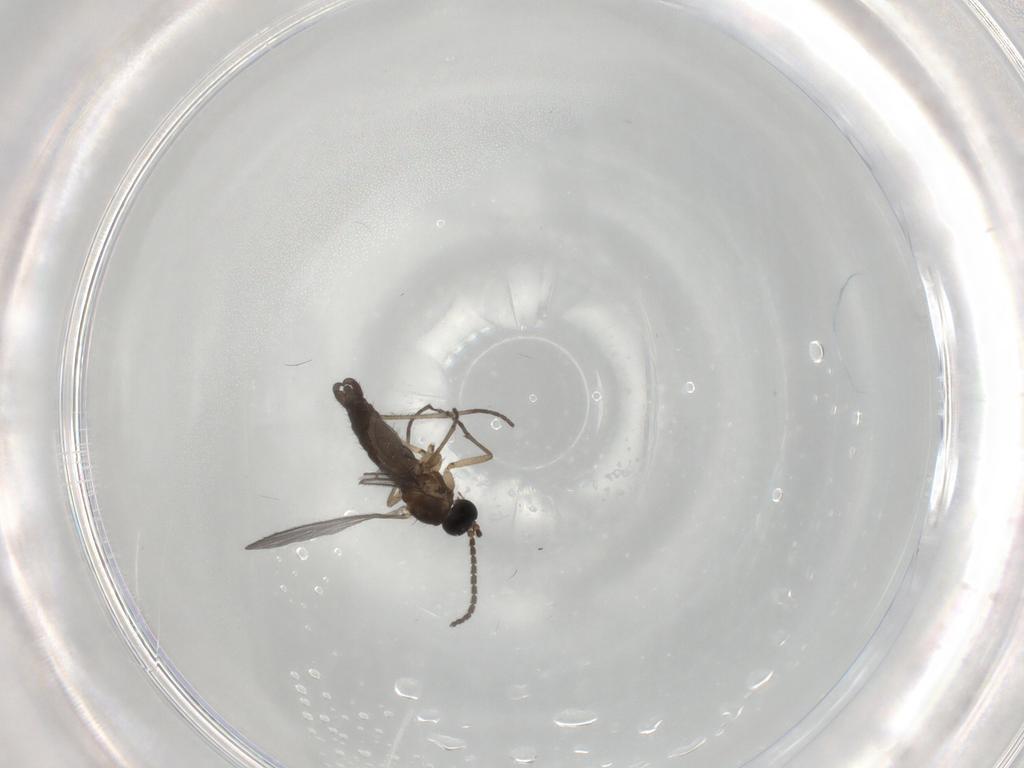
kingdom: Animalia
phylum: Arthropoda
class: Insecta
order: Diptera
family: Sciaridae
